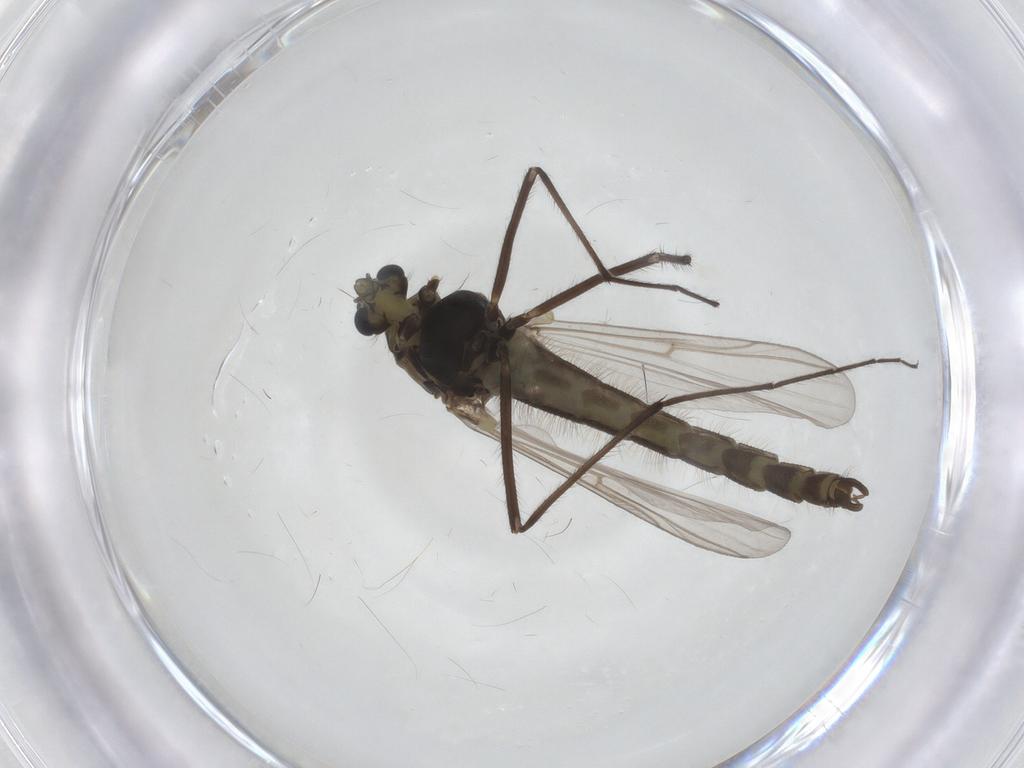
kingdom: Animalia
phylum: Arthropoda
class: Insecta
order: Diptera
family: Chironomidae
